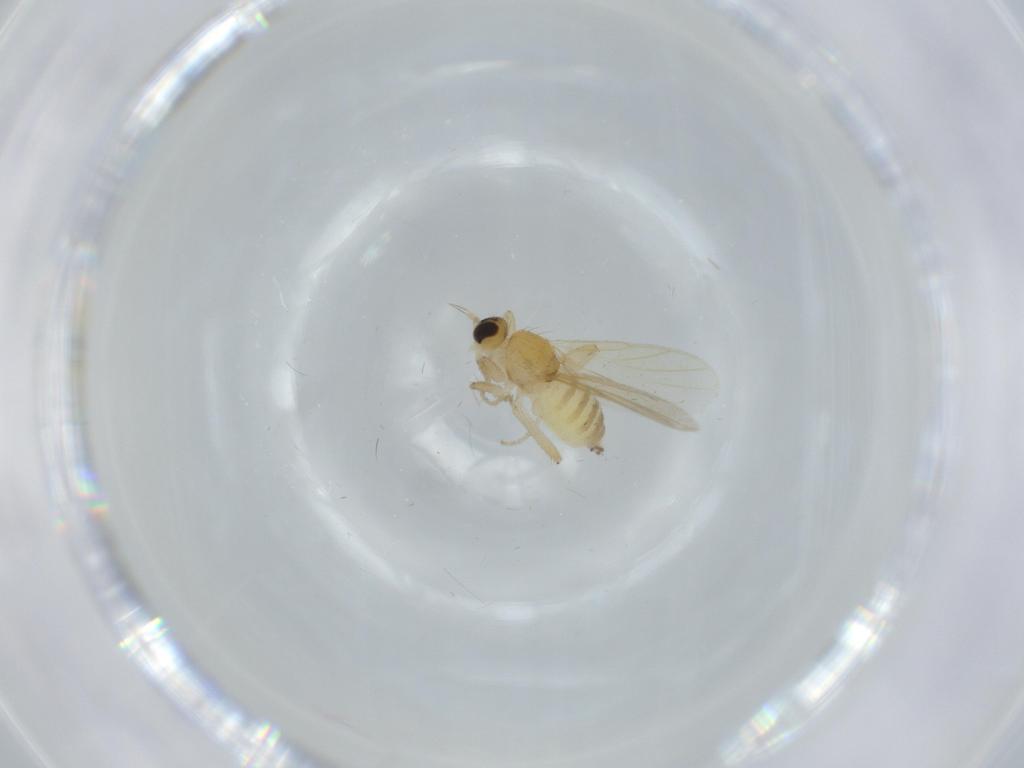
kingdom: Animalia
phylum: Arthropoda
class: Insecta
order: Diptera
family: Hybotidae
